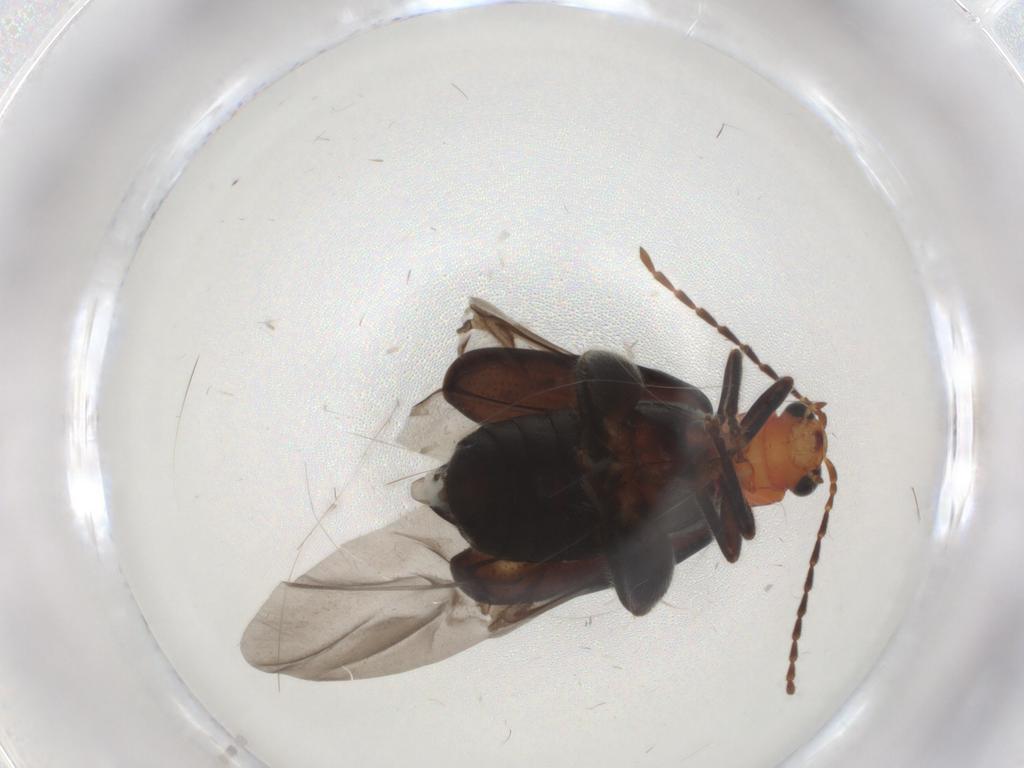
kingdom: Animalia
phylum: Arthropoda
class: Insecta
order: Coleoptera
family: Chrysomelidae
